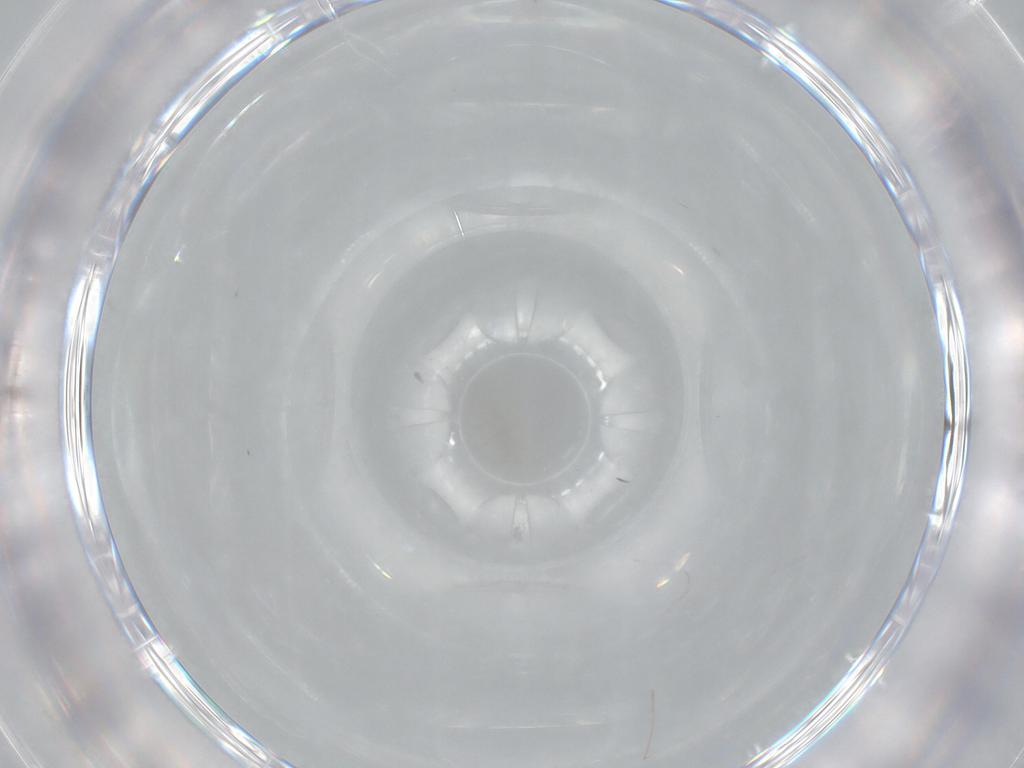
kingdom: Animalia
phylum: Arthropoda
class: Insecta
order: Diptera
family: Cecidomyiidae
